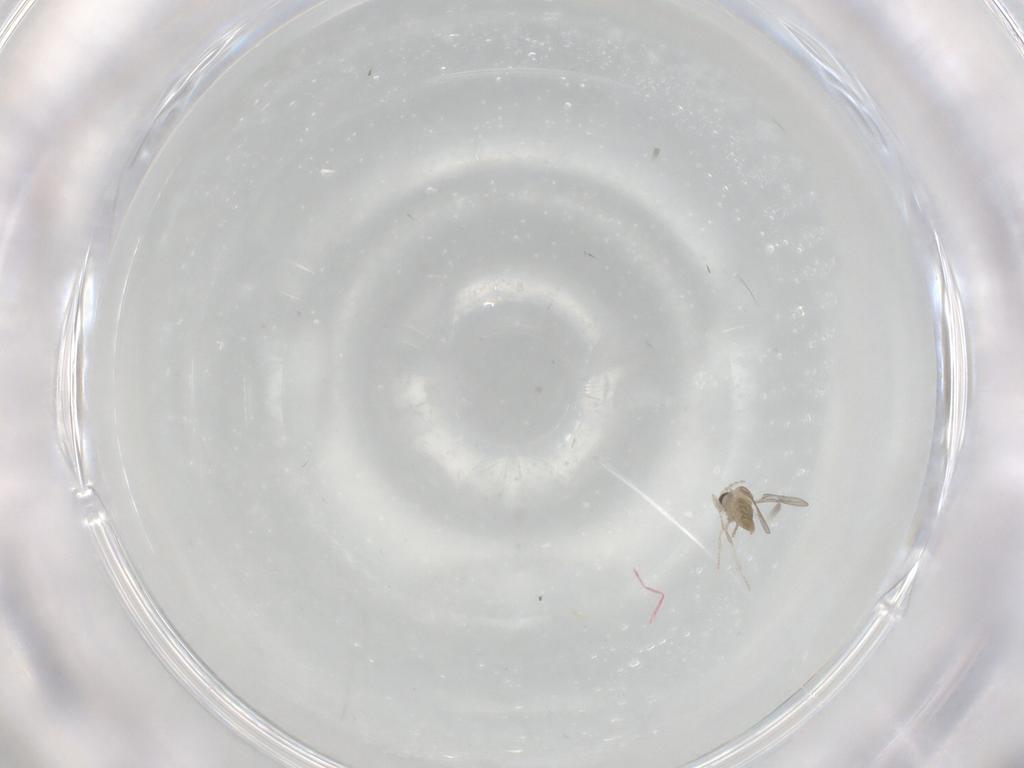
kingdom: Animalia
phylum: Arthropoda
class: Insecta
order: Diptera
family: Cecidomyiidae
